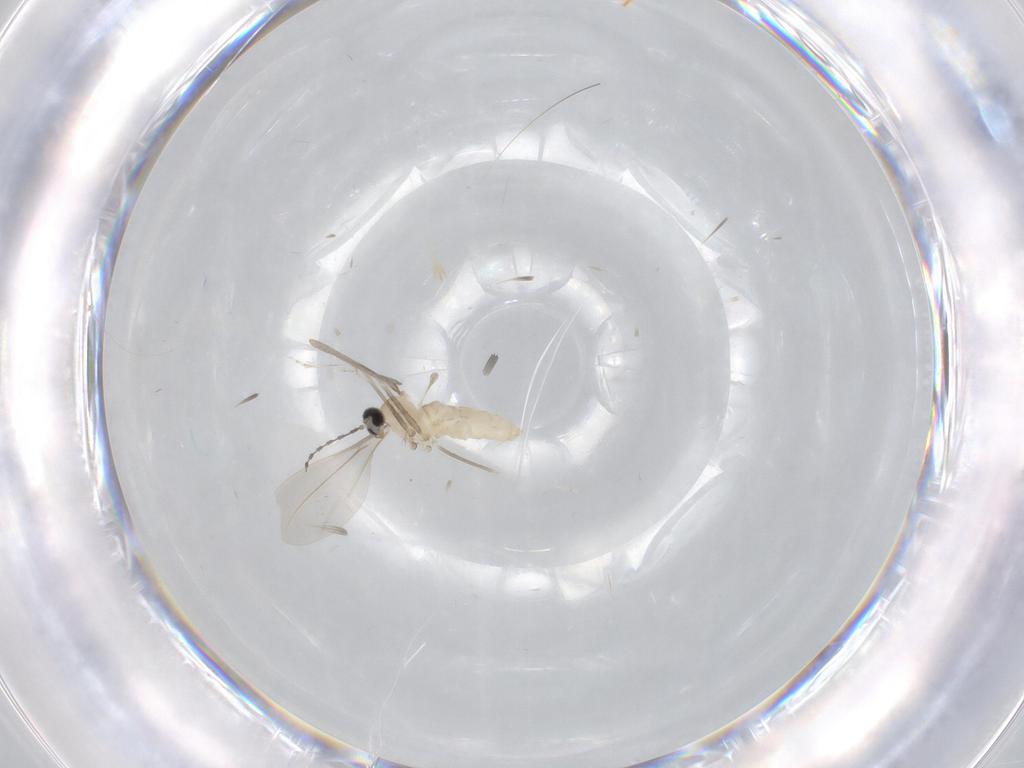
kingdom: Animalia
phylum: Arthropoda
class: Insecta
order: Diptera
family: Cecidomyiidae
